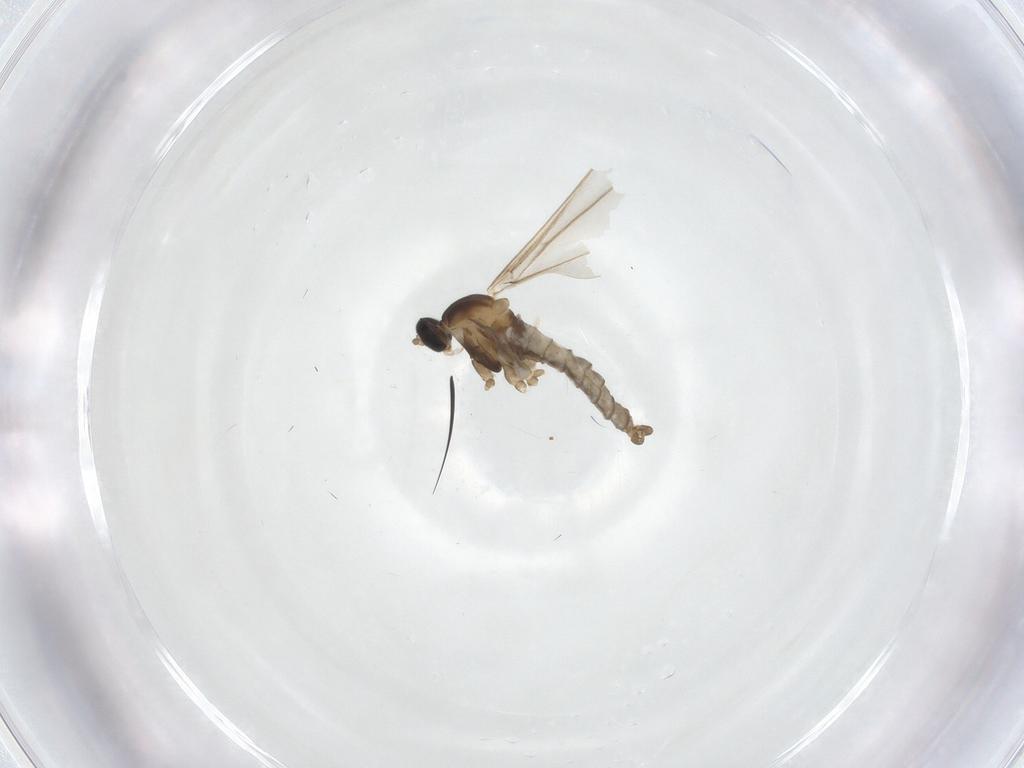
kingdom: Animalia
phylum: Arthropoda
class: Insecta
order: Diptera
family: Cecidomyiidae
